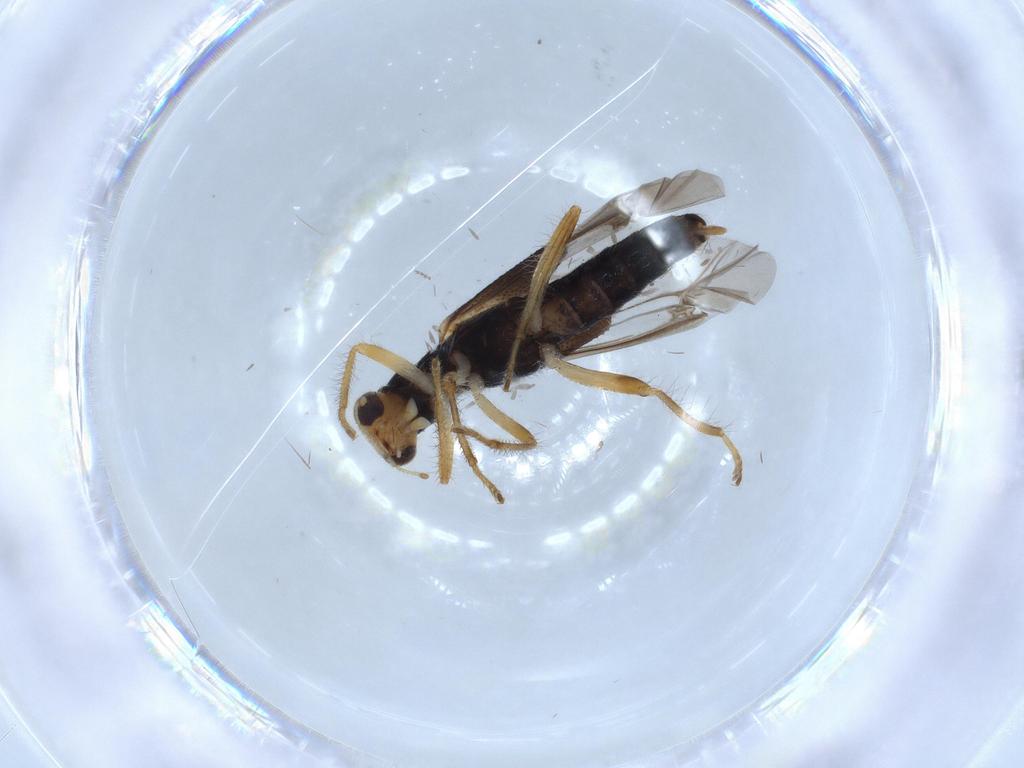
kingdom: Animalia
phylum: Arthropoda
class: Insecta
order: Coleoptera
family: Cleridae
